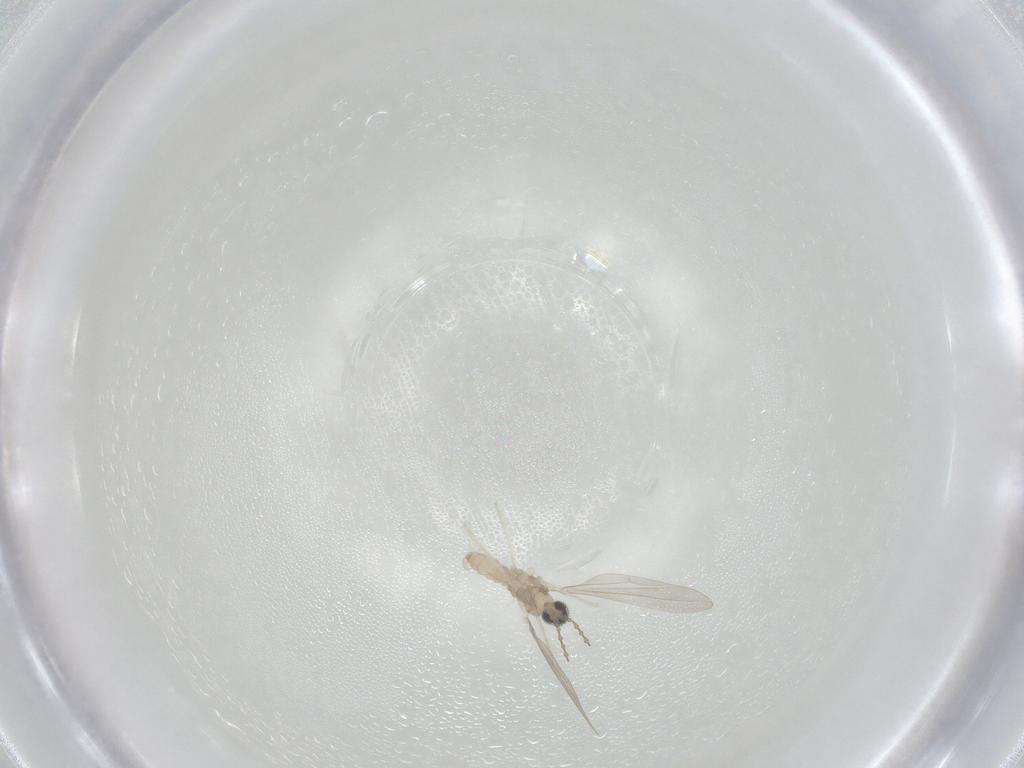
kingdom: Animalia
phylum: Arthropoda
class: Insecta
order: Diptera
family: Cecidomyiidae
